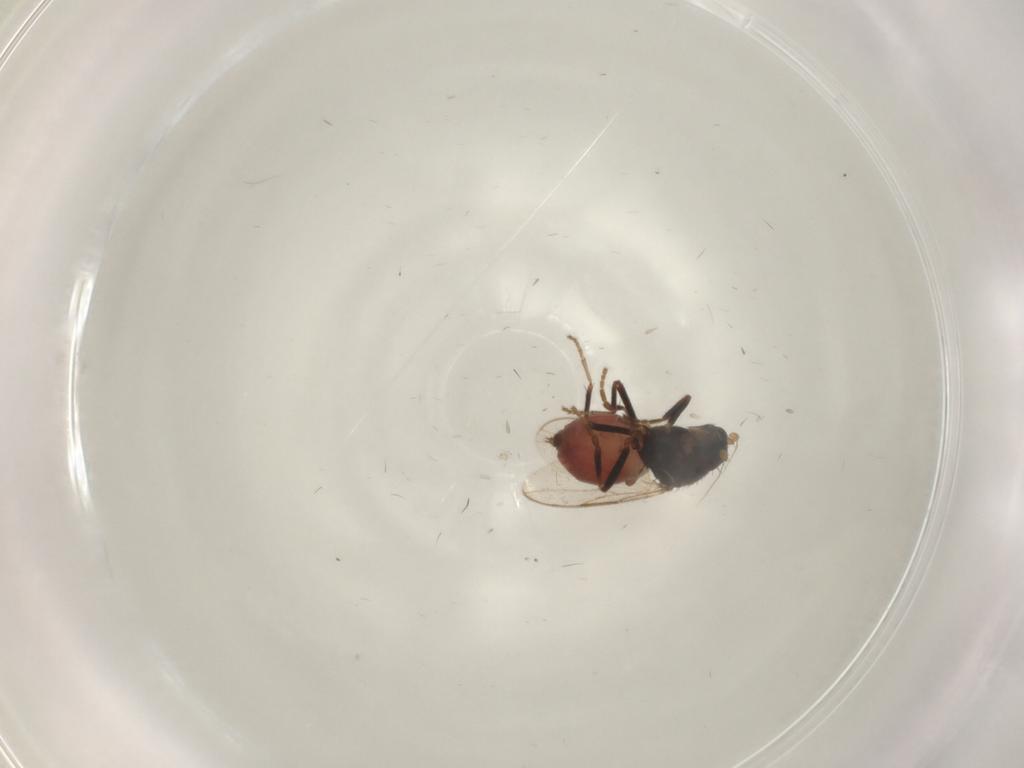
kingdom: Animalia
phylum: Arthropoda
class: Insecta
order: Diptera
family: Sphaeroceridae
